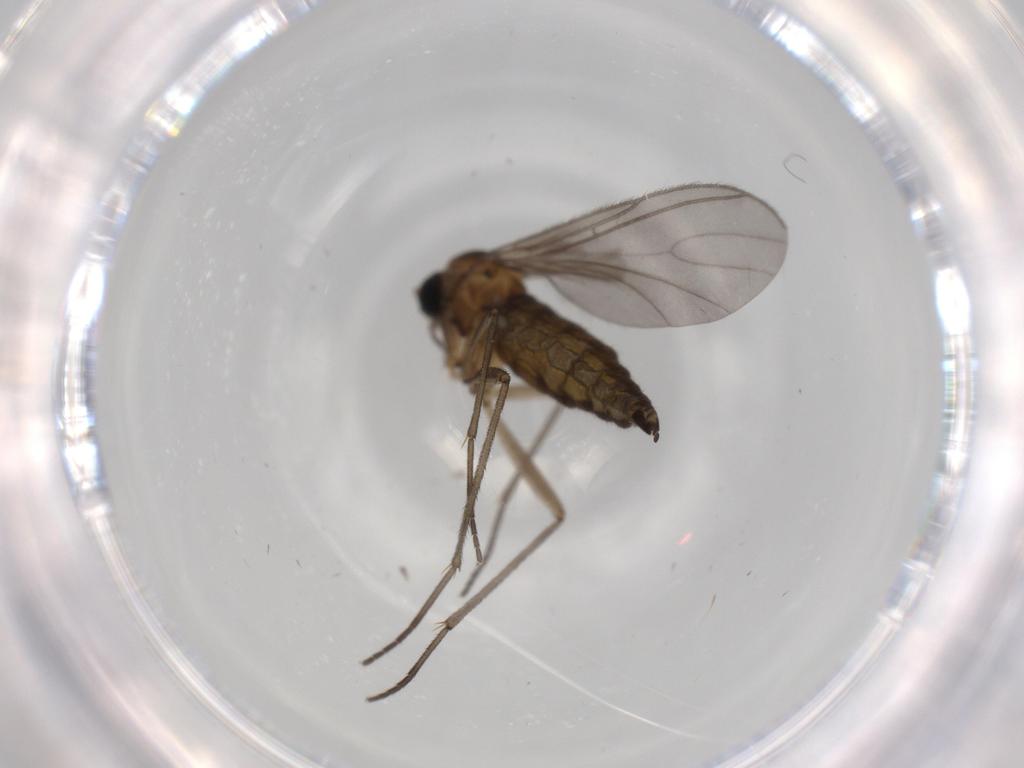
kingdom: Animalia
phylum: Arthropoda
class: Insecta
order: Diptera
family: Sciaridae
